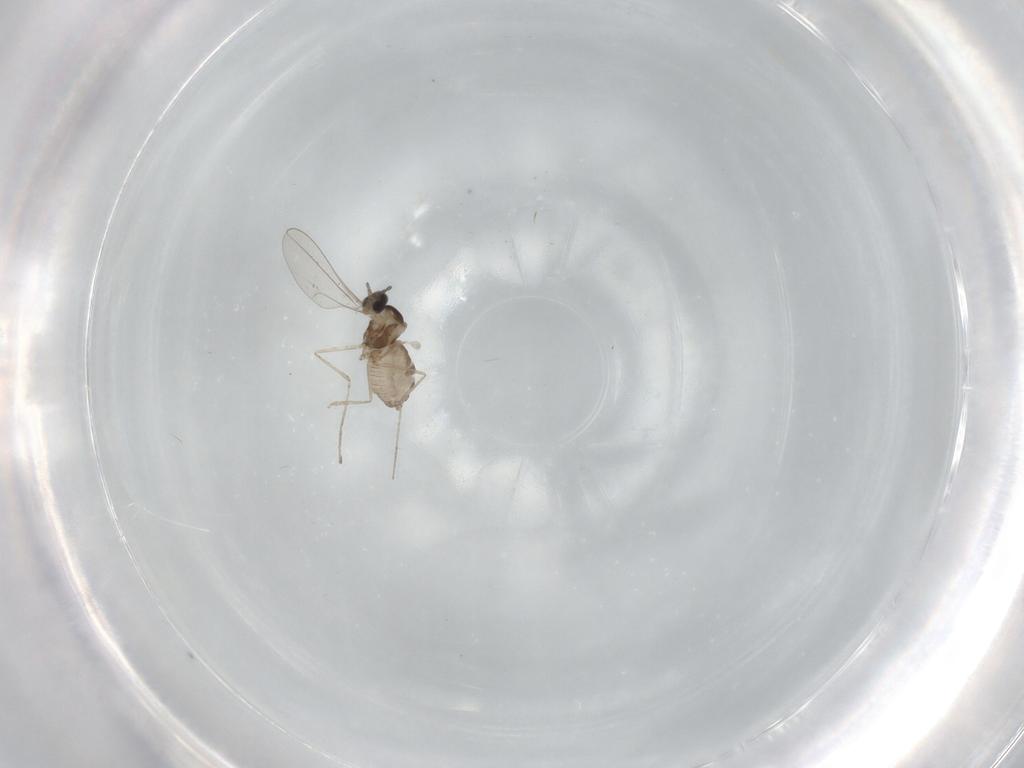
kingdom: Animalia
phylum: Arthropoda
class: Insecta
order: Diptera
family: Cecidomyiidae
